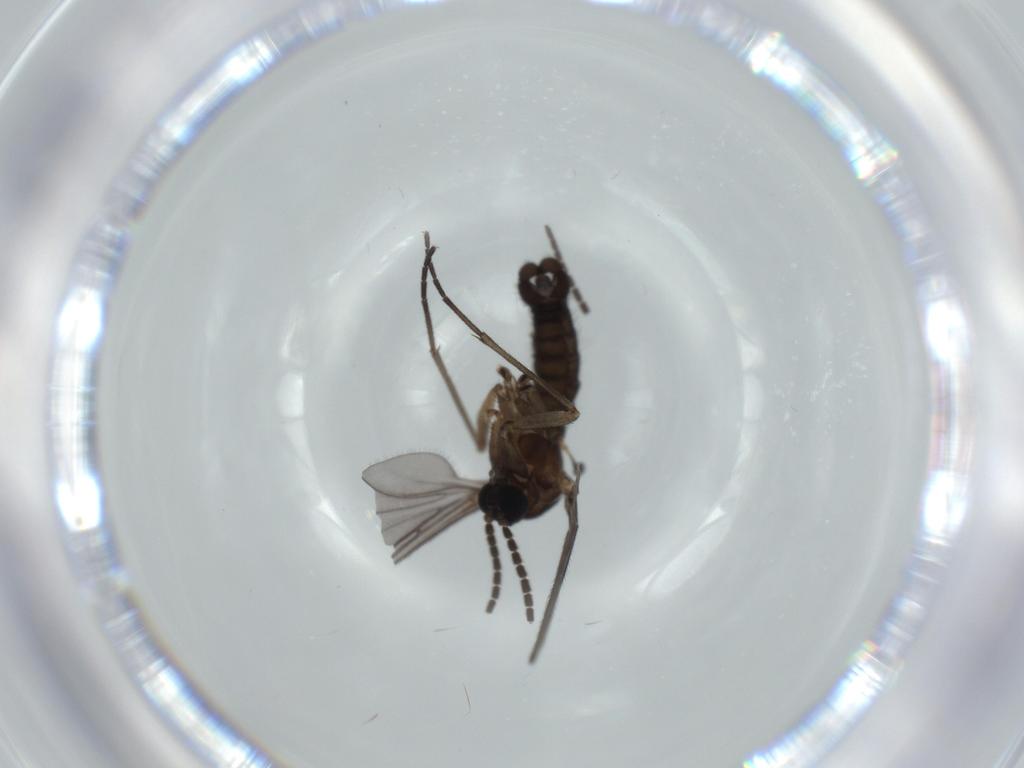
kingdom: Animalia
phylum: Arthropoda
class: Insecta
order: Diptera
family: Sciaridae
